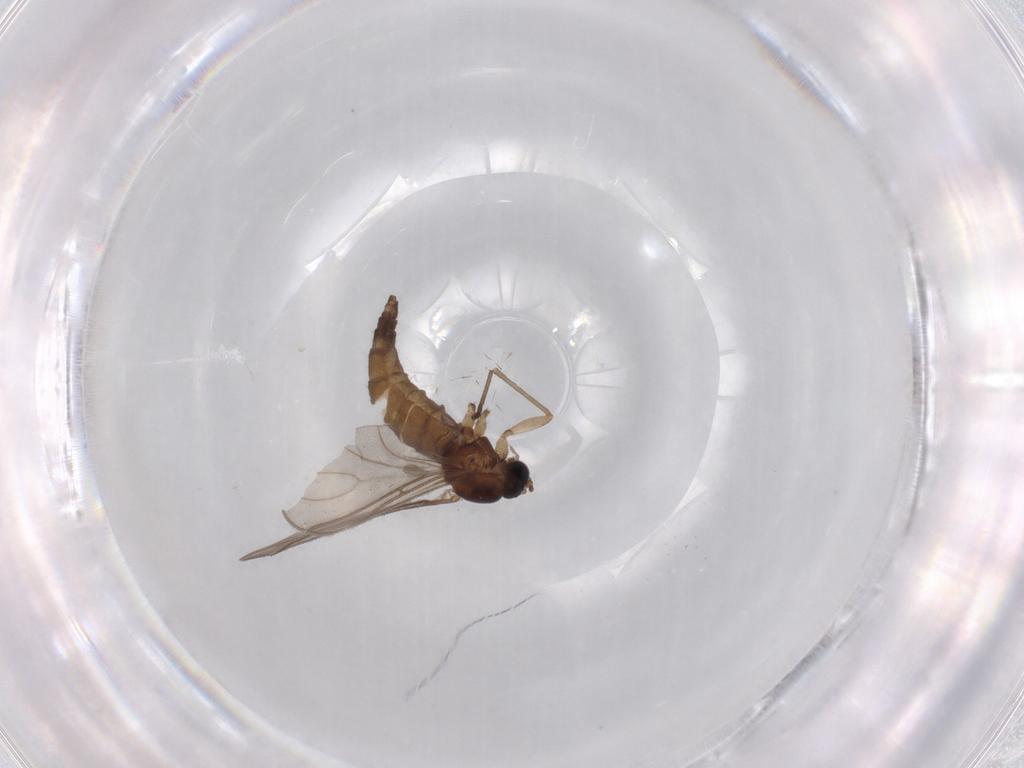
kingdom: Animalia
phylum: Arthropoda
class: Insecta
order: Diptera
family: Sciaridae
